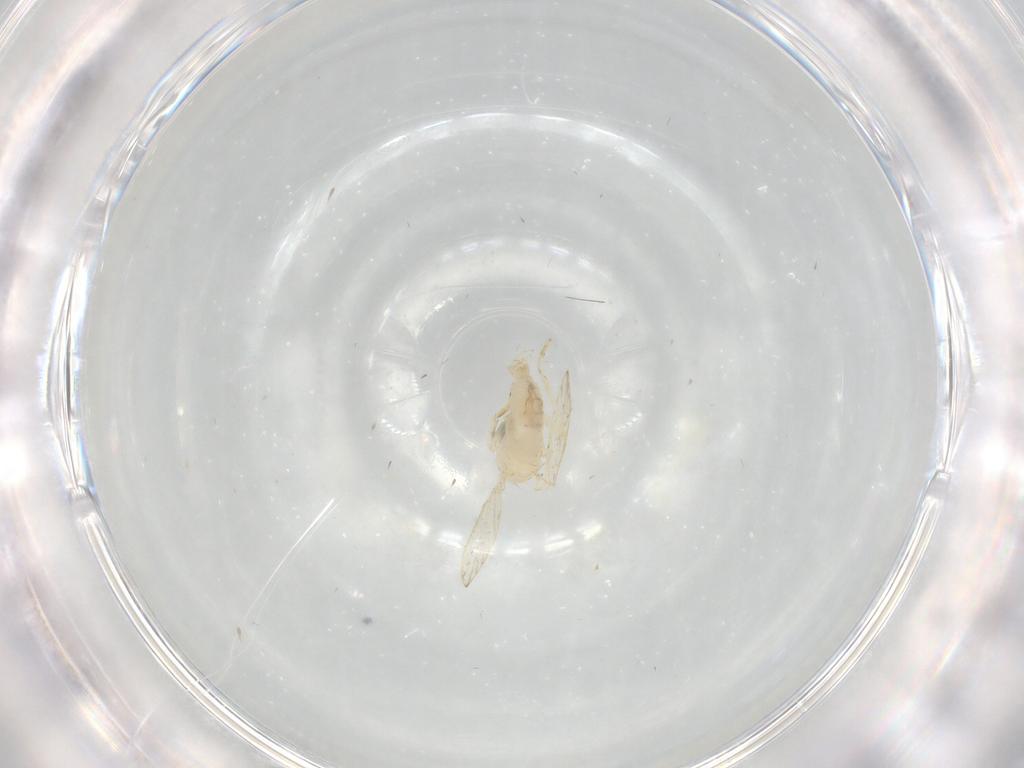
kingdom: Animalia
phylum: Arthropoda
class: Insecta
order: Diptera
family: Psychodidae
